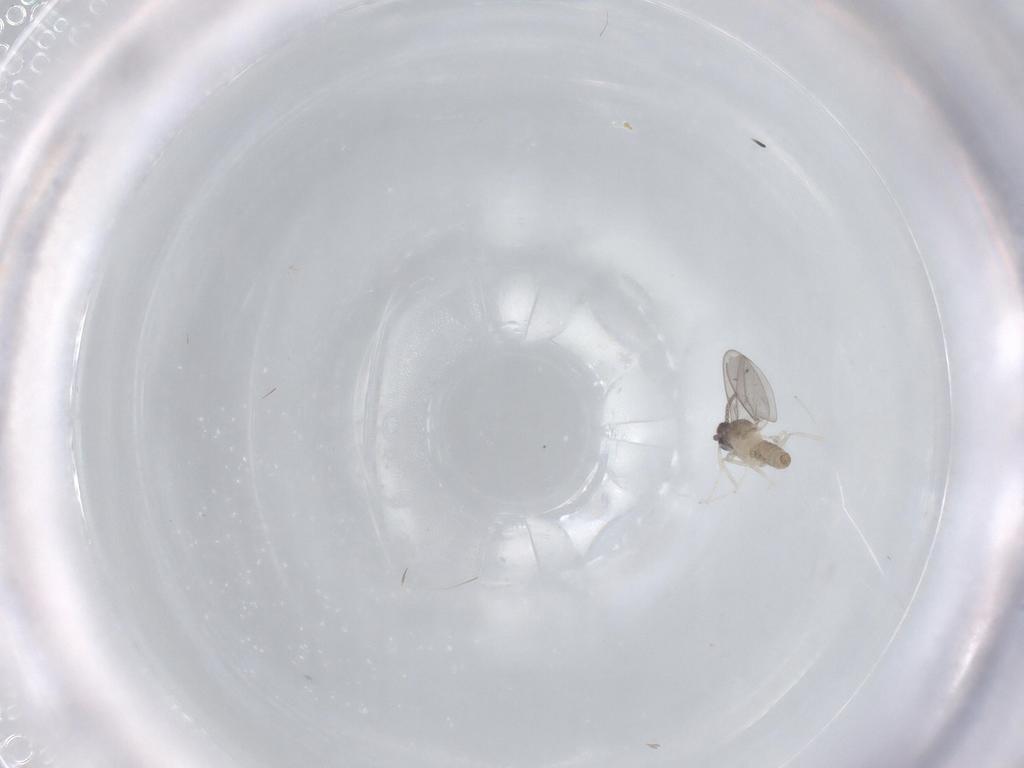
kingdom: Animalia
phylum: Arthropoda
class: Insecta
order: Diptera
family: Cecidomyiidae
